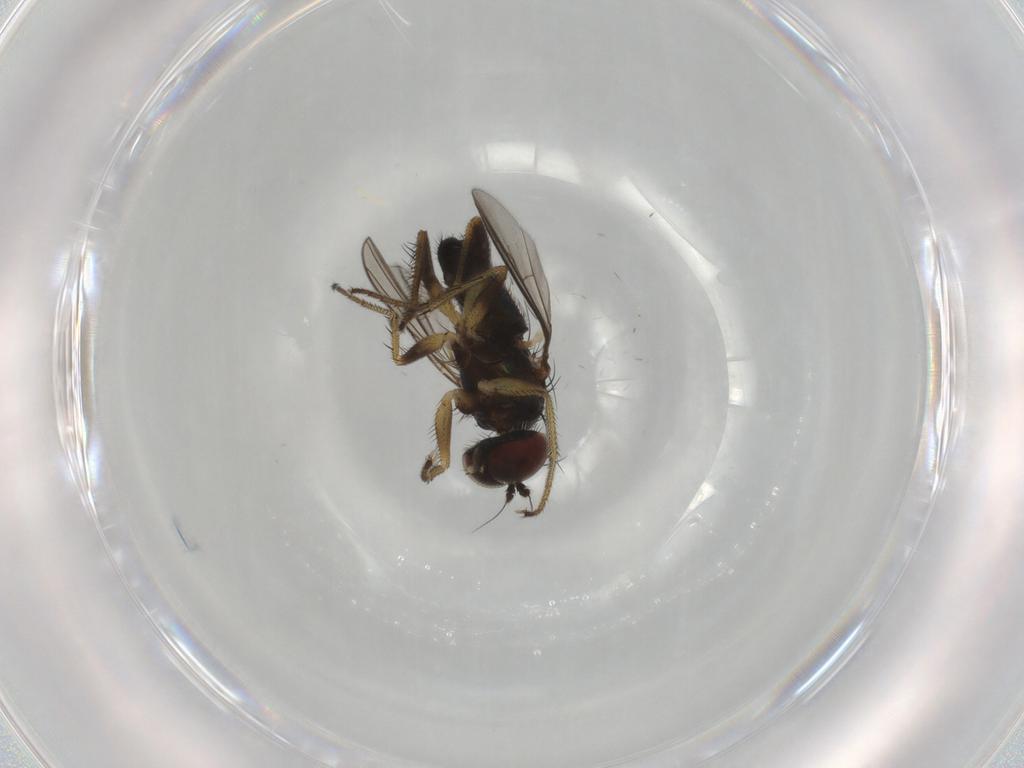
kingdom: Animalia
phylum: Arthropoda
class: Insecta
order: Diptera
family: Dolichopodidae
